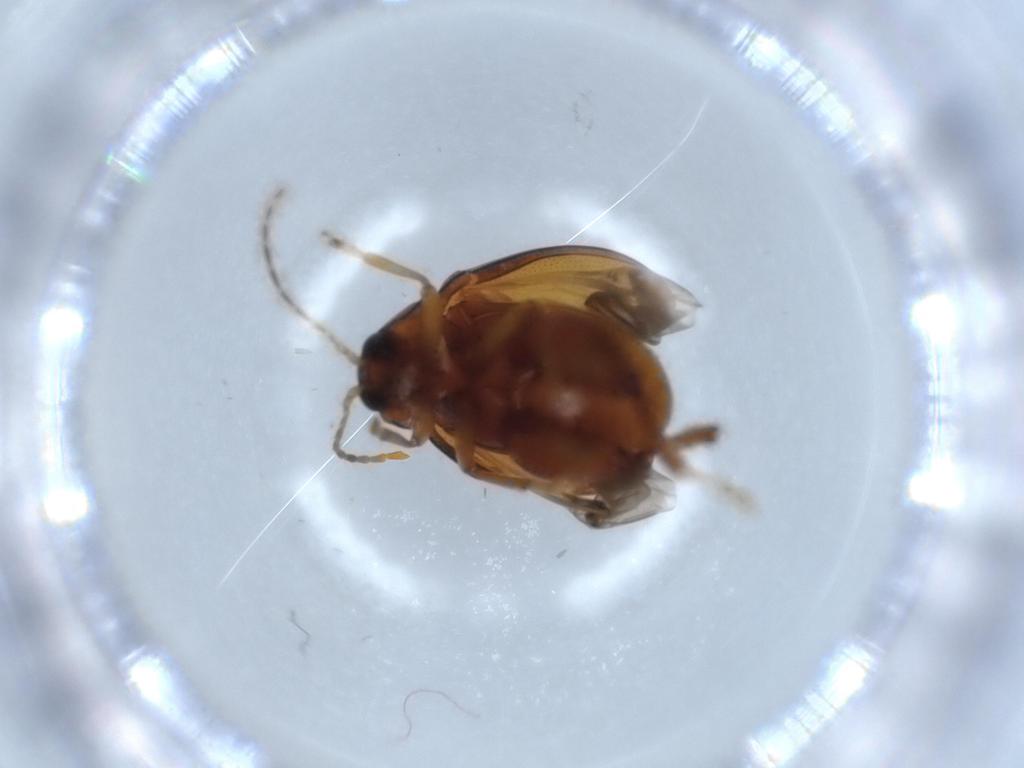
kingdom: Animalia
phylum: Arthropoda
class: Insecta
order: Coleoptera
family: Chrysomelidae
